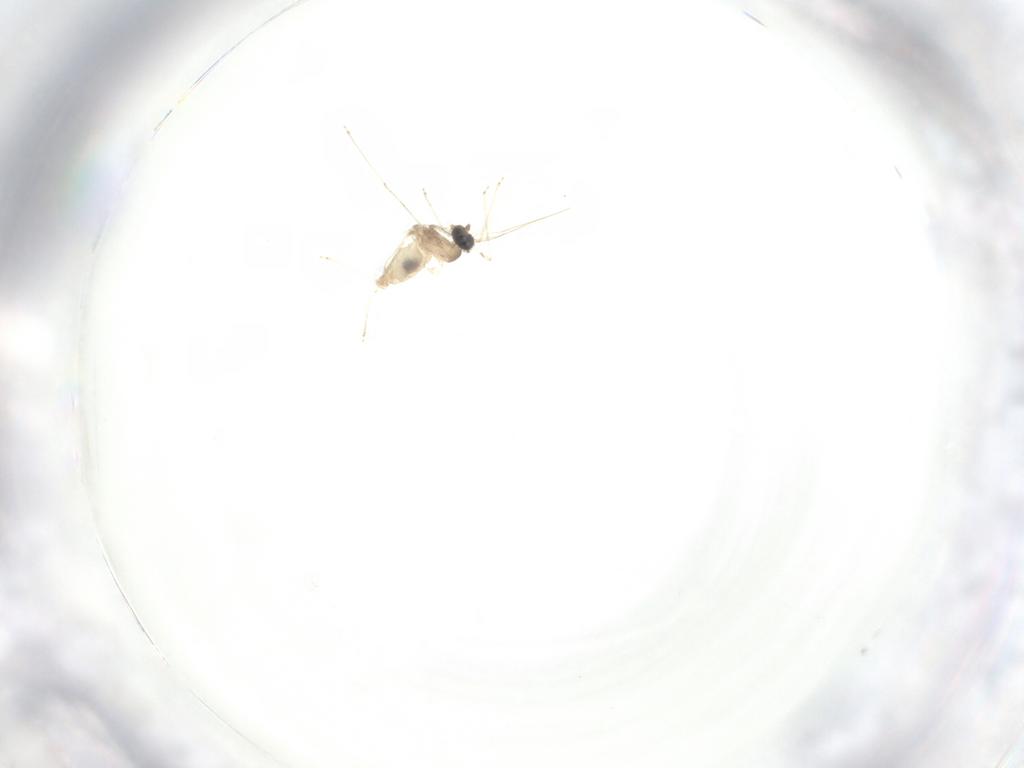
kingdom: Animalia
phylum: Arthropoda
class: Insecta
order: Diptera
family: Cecidomyiidae
